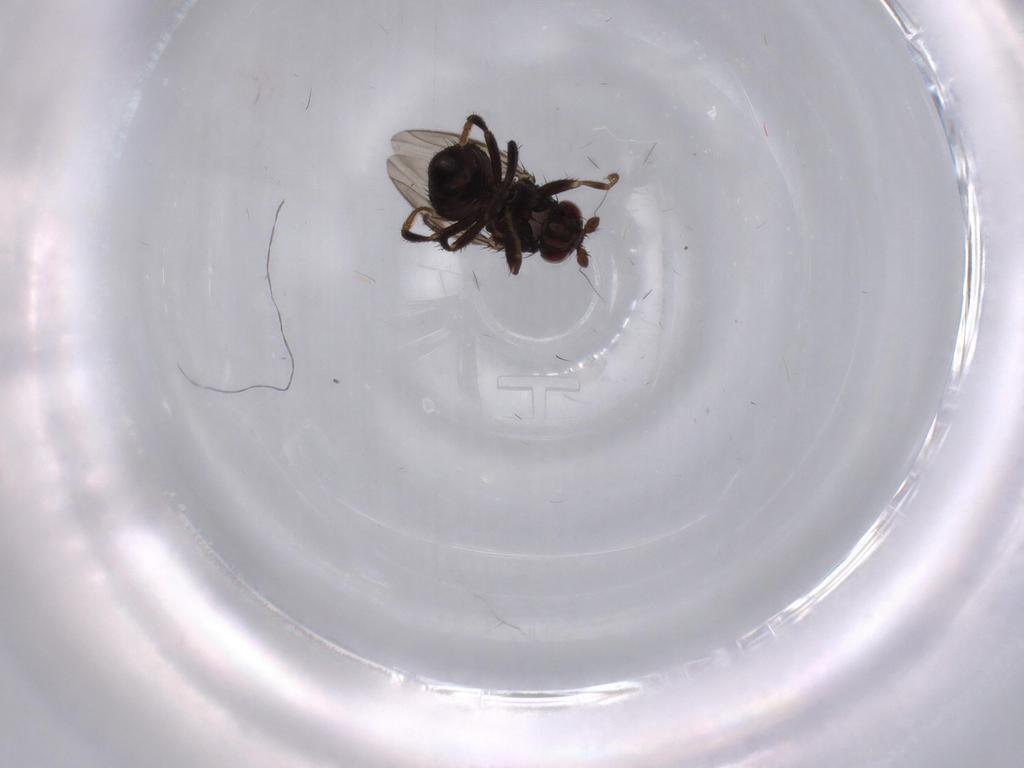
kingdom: Animalia
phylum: Arthropoda
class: Insecta
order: Diptera
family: Sphaeroceridae
